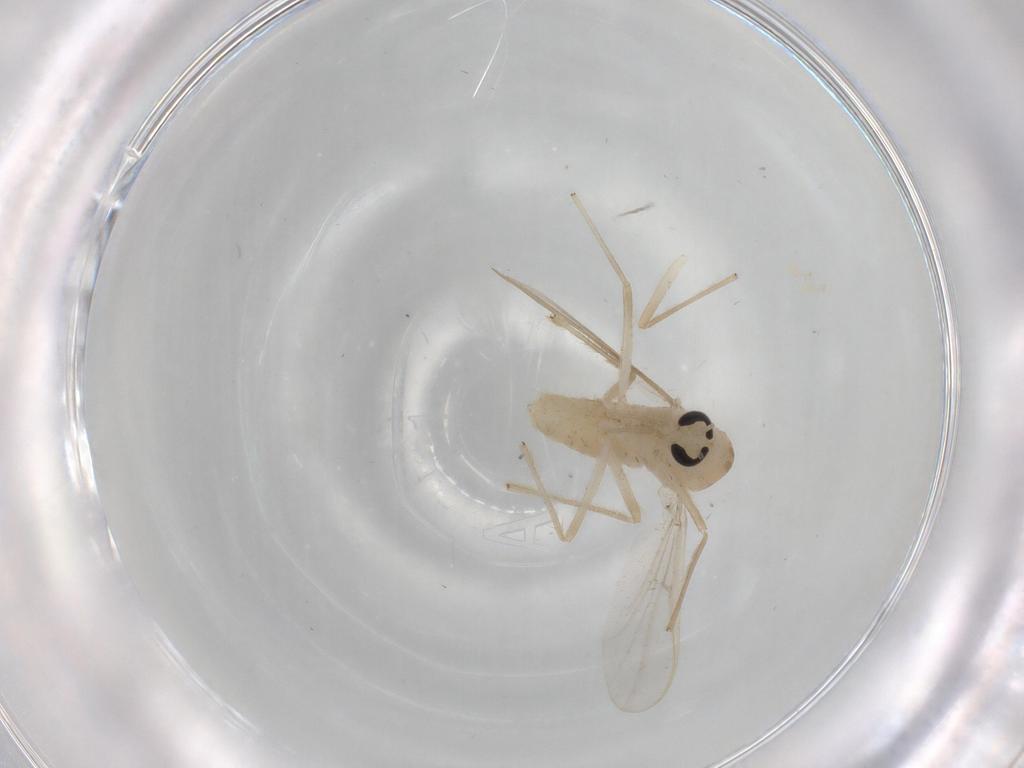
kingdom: Animalia
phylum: Arthropoda
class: Insecta
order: Diptera
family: Chironomidae
